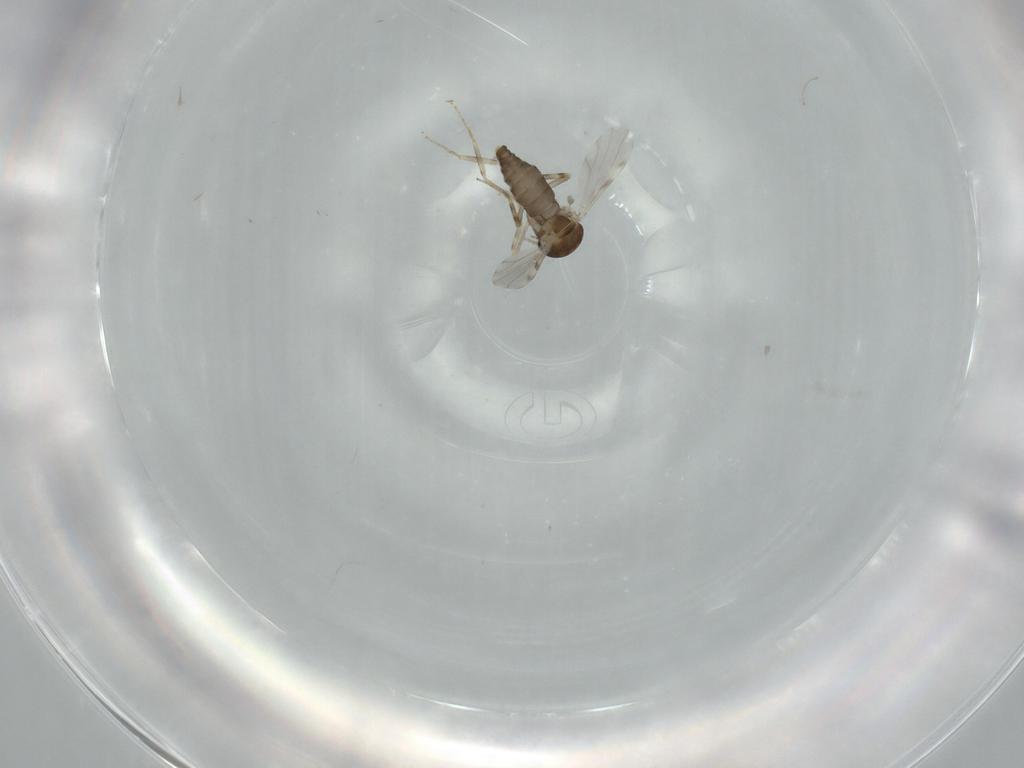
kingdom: Animalia
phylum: Arthropoda
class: Insecta
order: Diptera
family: Ceratopogonidae
